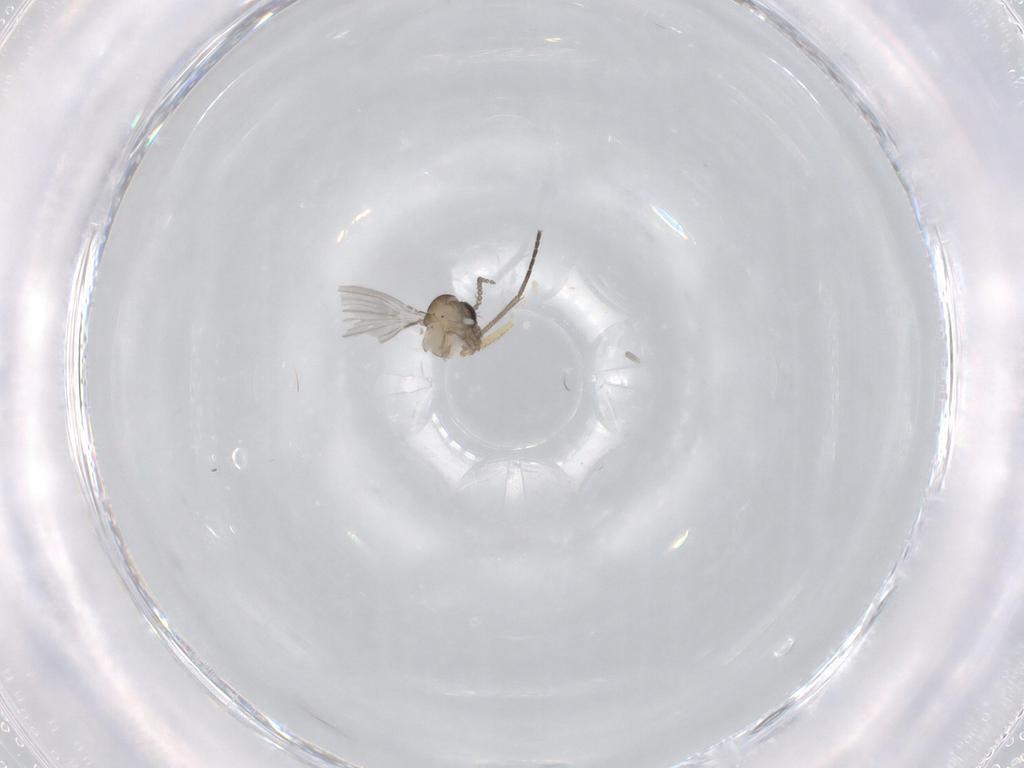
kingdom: Animalia
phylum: Arthropoda
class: Insecta
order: Diptera
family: Psychodidae
